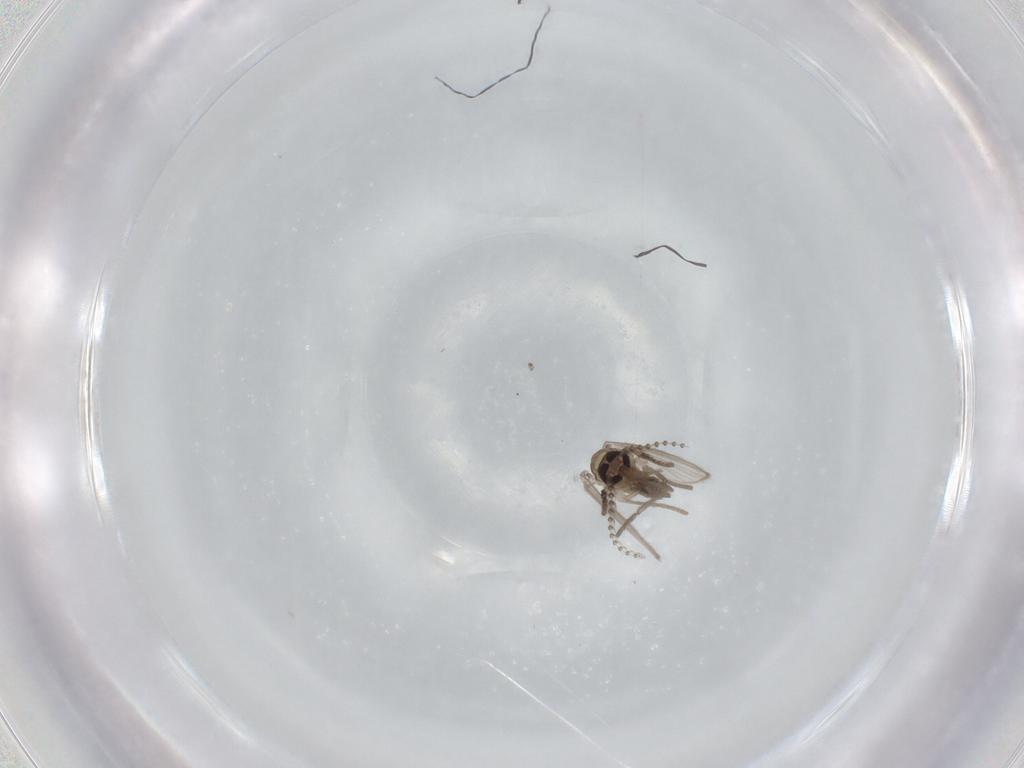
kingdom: Animalia
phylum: Arthropoda
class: Insecta
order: Diptera
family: Psychodidae
